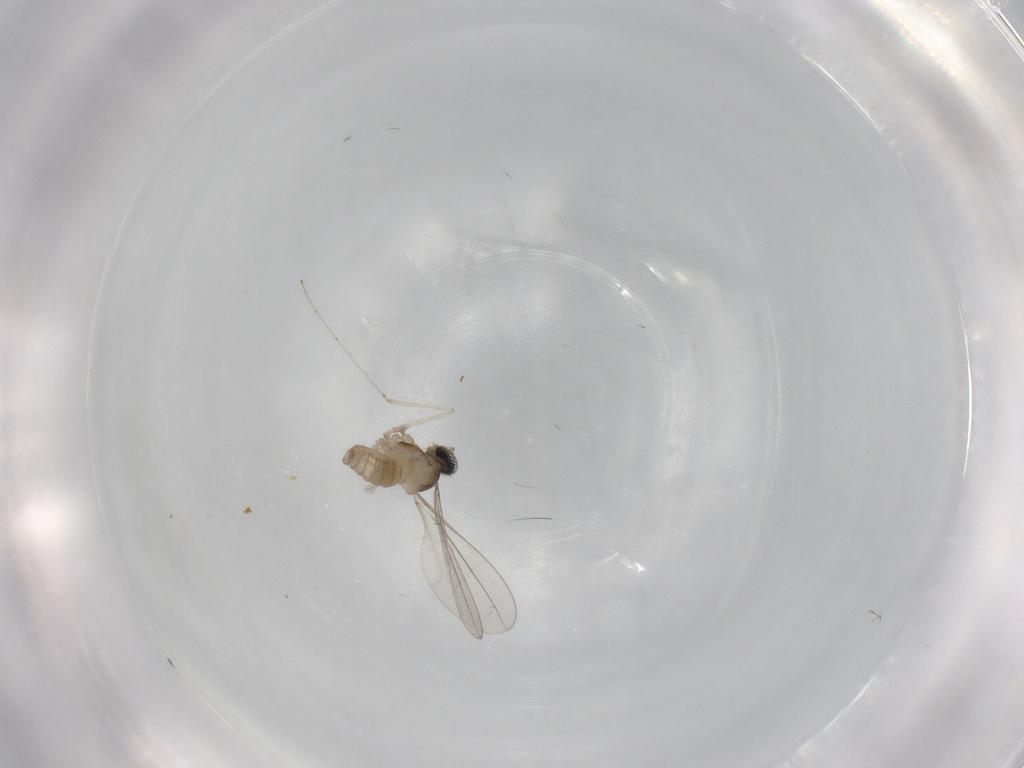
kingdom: Animalia
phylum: Arthropoda
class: Insecta
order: Diptera
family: Cecidomyiidae
